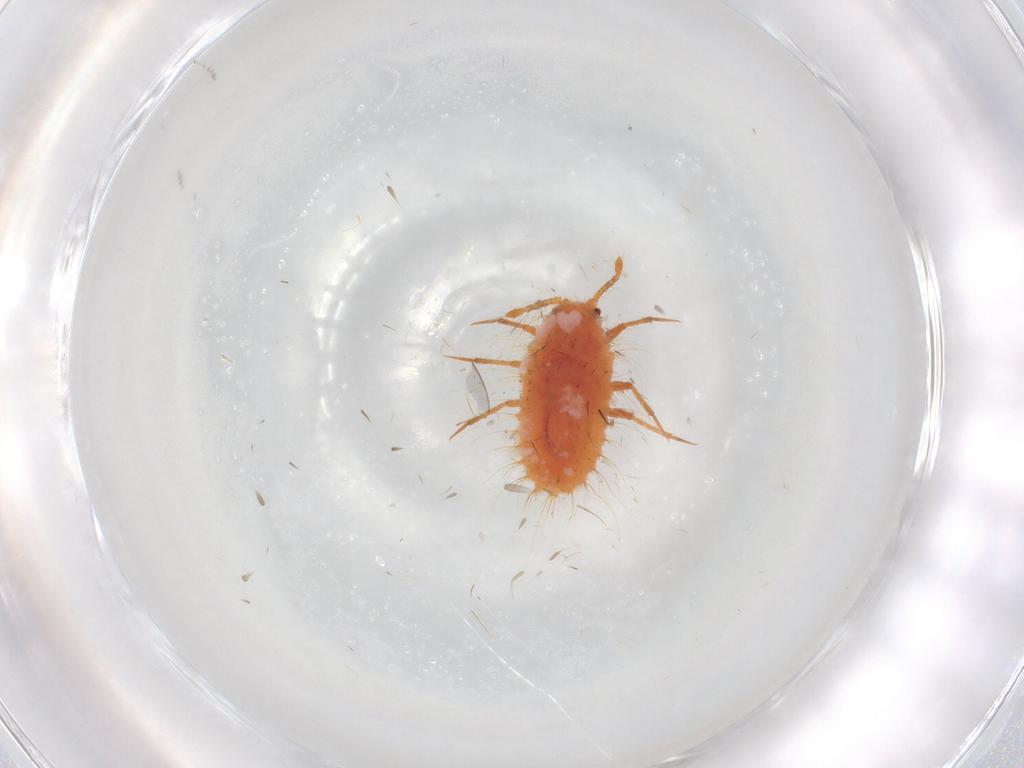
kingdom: Animalia
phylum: Arthropoda
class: Insecta
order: Hemiptera
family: Coccoidea_incertae_sedis
